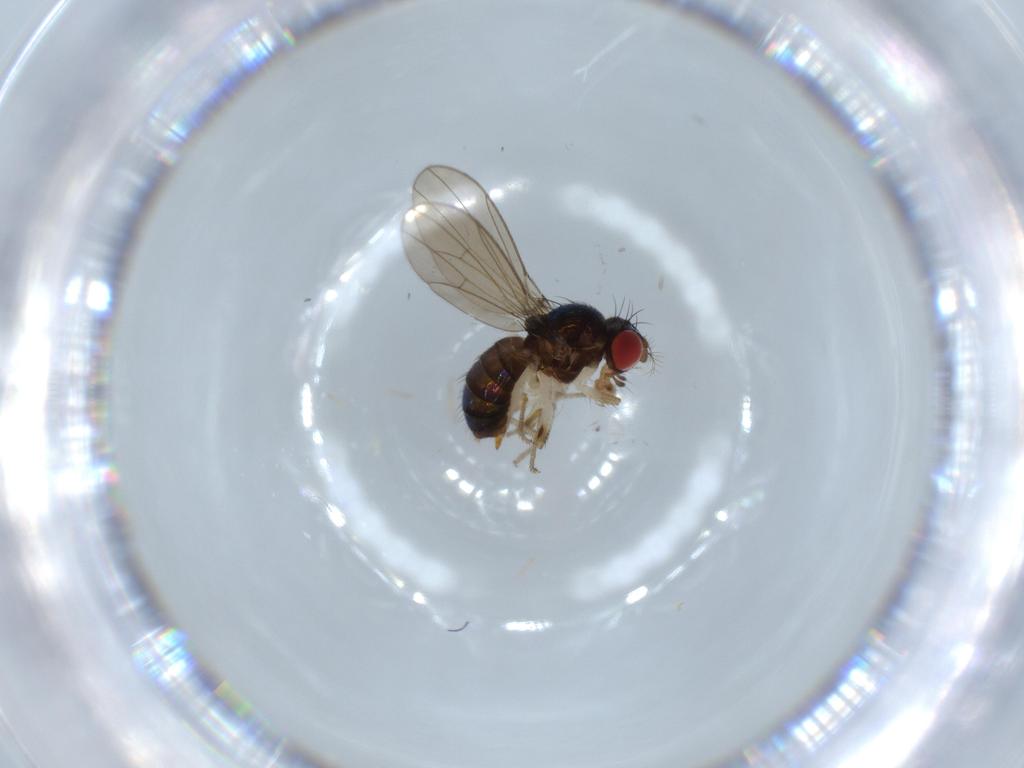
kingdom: Animalia
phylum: Arthropoda
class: Insecta
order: Diptera
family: Drosophilidae
